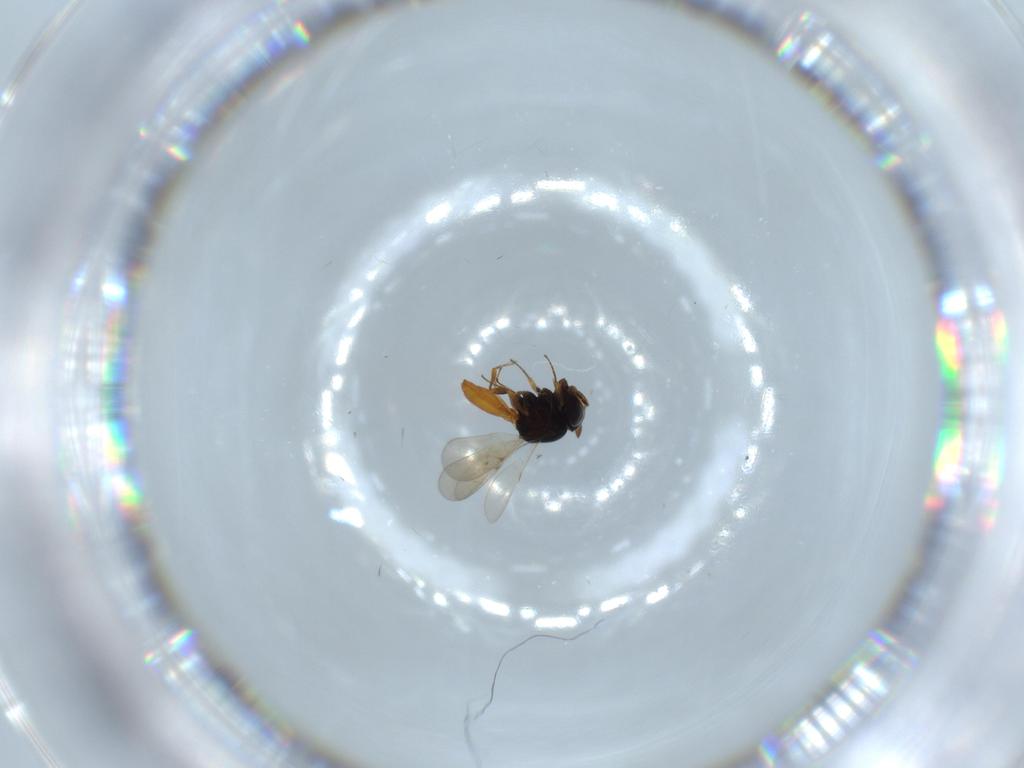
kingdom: Animalia
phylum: Arthropoda
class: Insecta
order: Hymenoptera
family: Scelionidae
